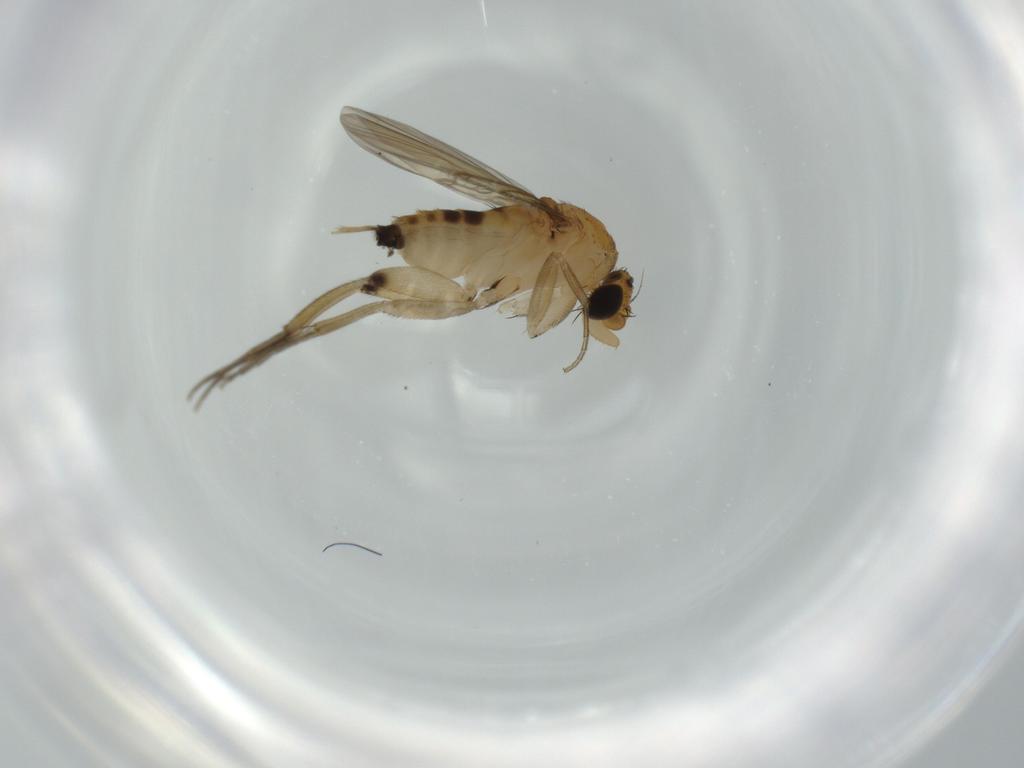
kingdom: Animalia
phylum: Arthropoda
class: Insecta
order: Diptera
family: Phoridae
